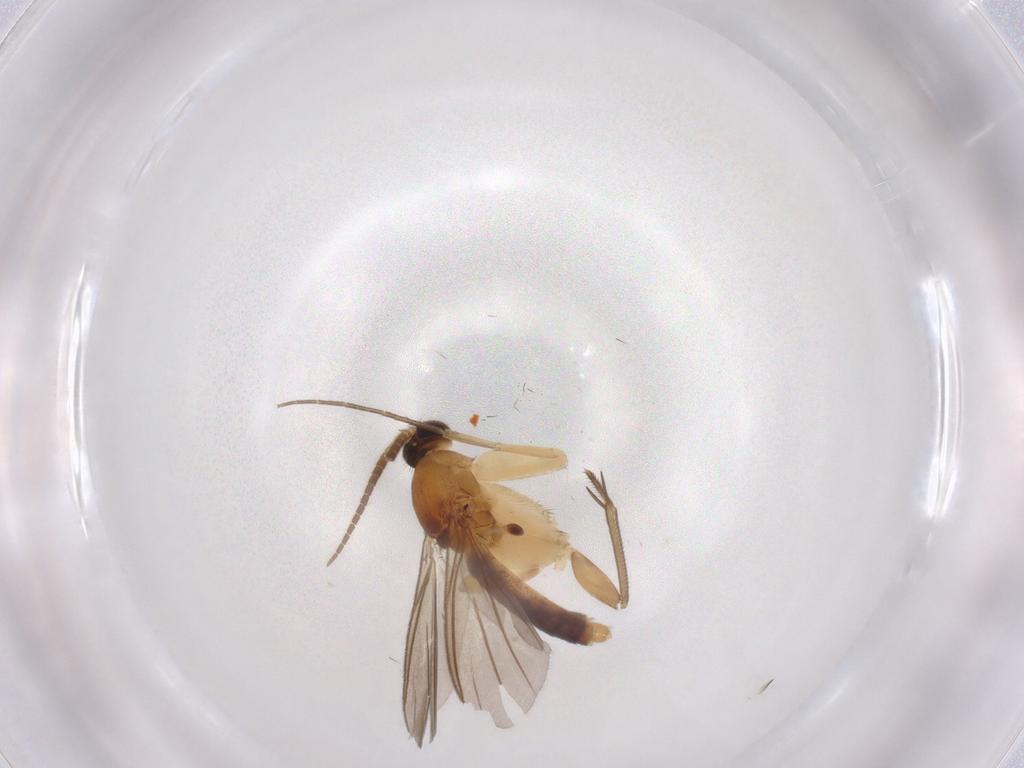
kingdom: Animalia
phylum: Arthropoda
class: Insecta
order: Diptera
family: Mycetophilidae
